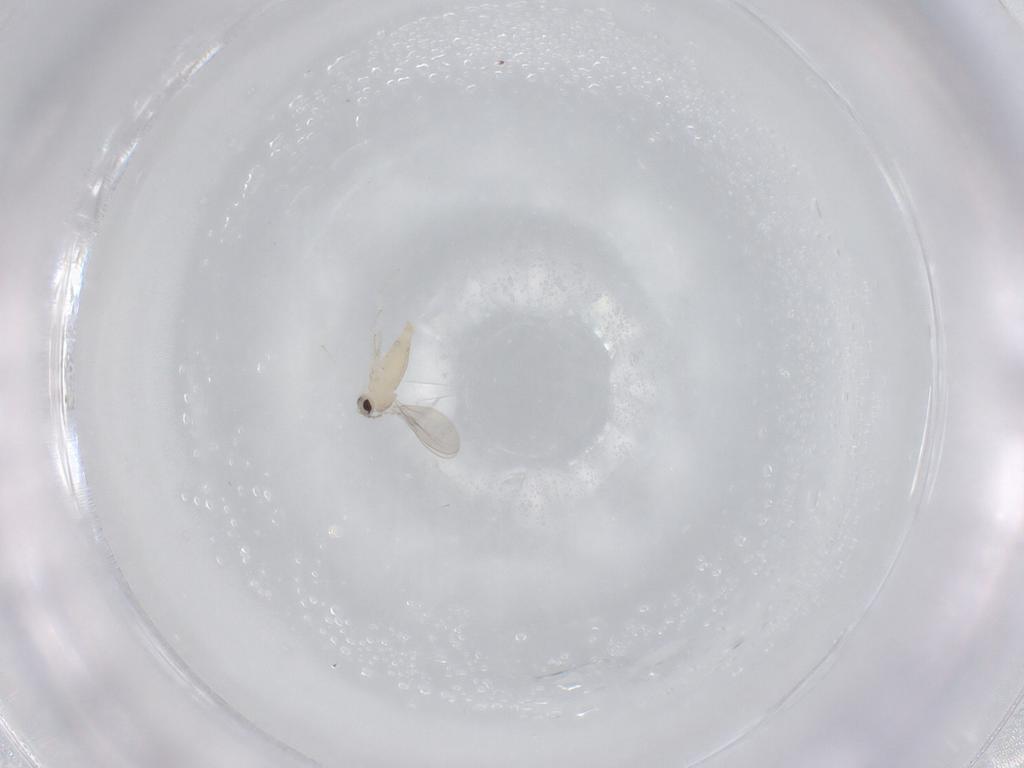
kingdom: Animalia
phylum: Arthropoda
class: Insecta
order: Diptera
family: Cecidomyiidae
